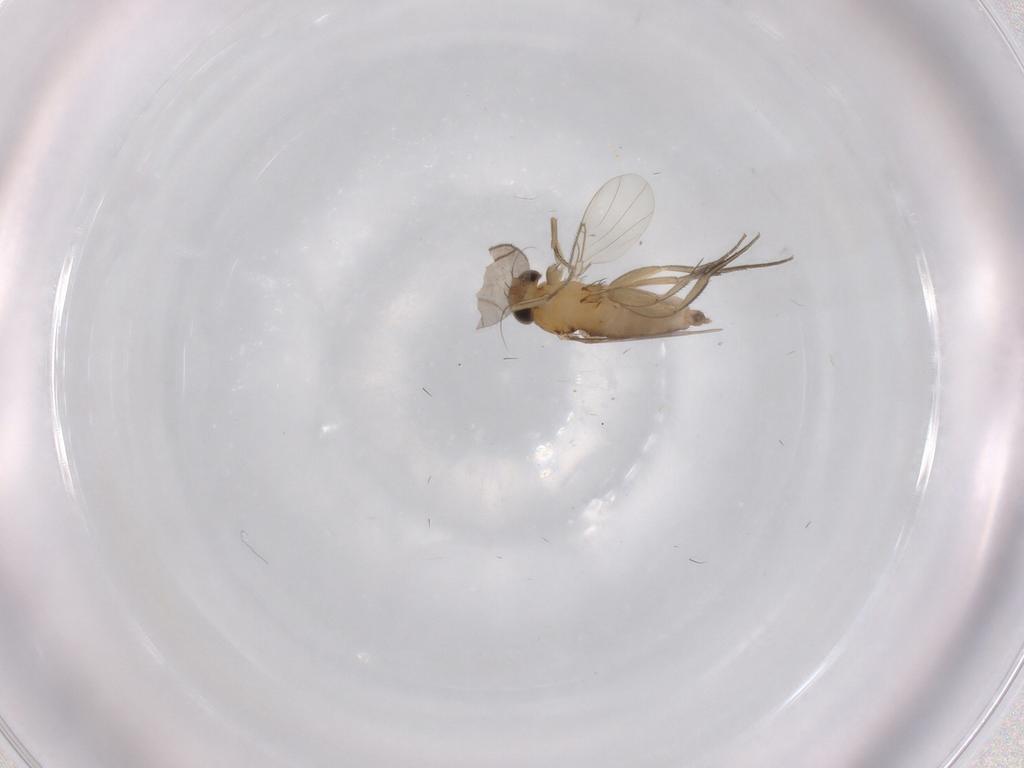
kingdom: Animalia
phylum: Arthropoda
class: Insecta
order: Diptera
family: Phoridae
